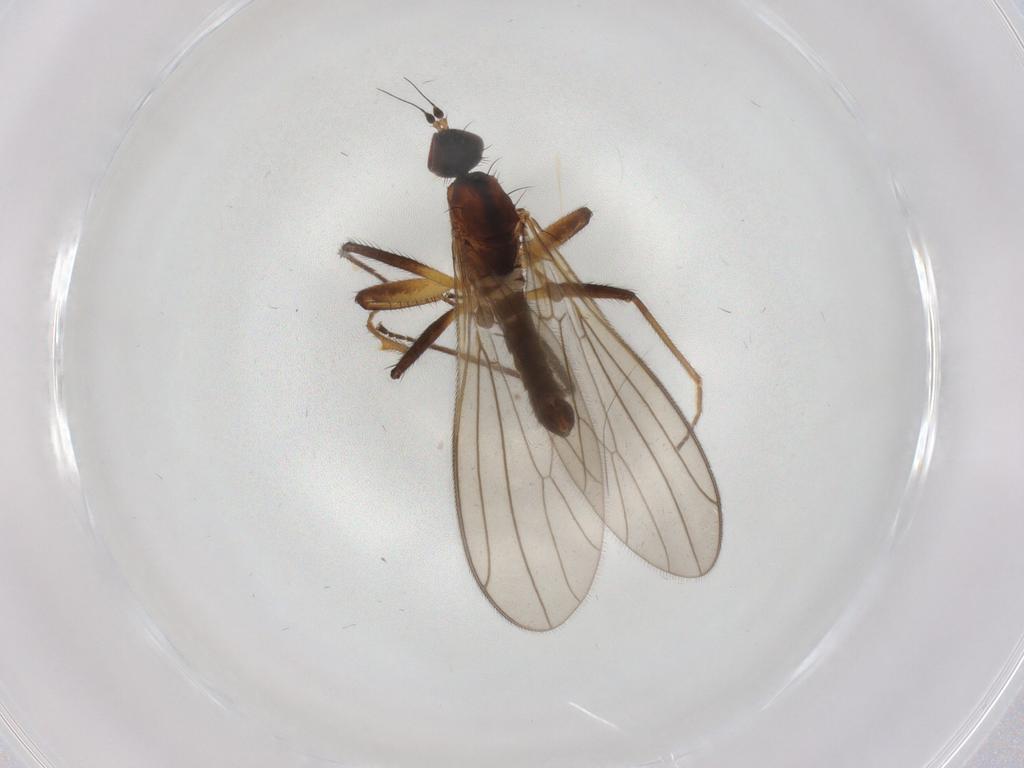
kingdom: Animalia
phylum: Arthropoda
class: Insecta
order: Diptera
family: Empididae
